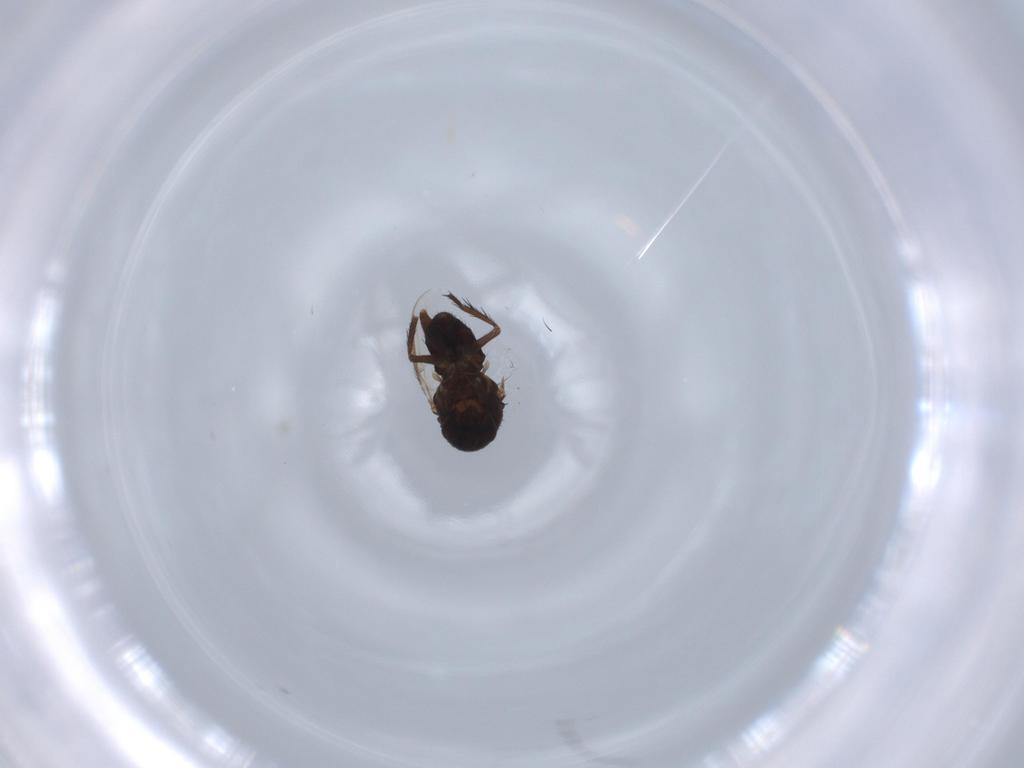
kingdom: Animalia
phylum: Arthropoda
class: Insecta
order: Diptera
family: Sphaeroceridae
